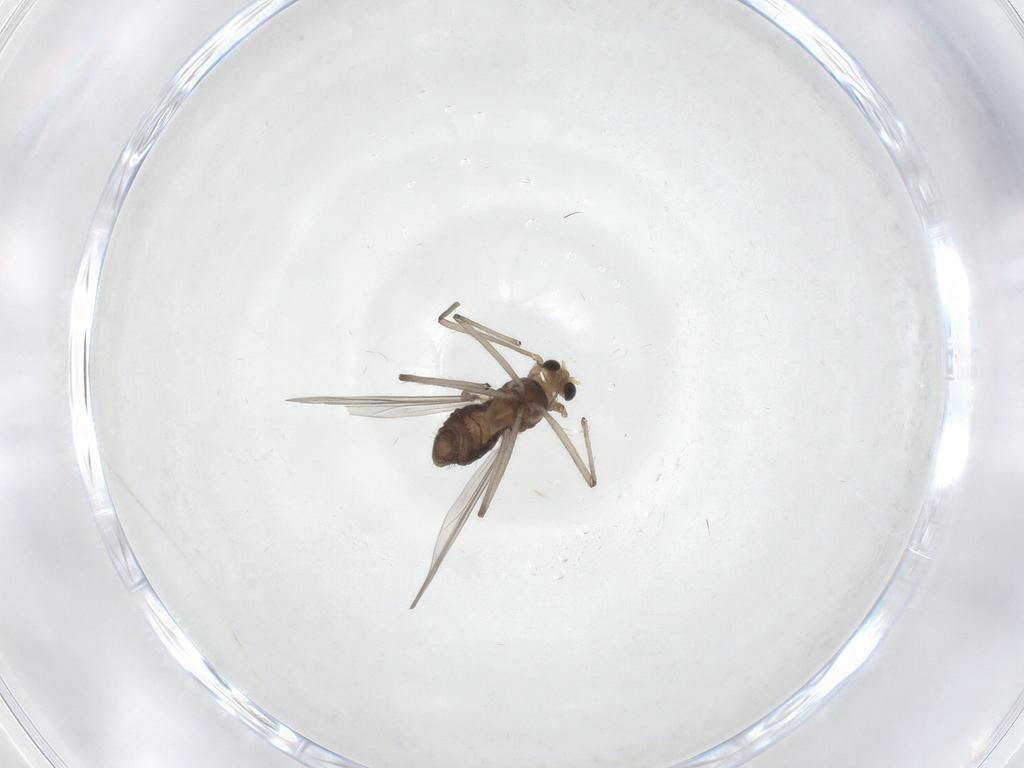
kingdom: Animalia
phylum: Arthropoda
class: Insecta
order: Diptera
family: Chironomidae
